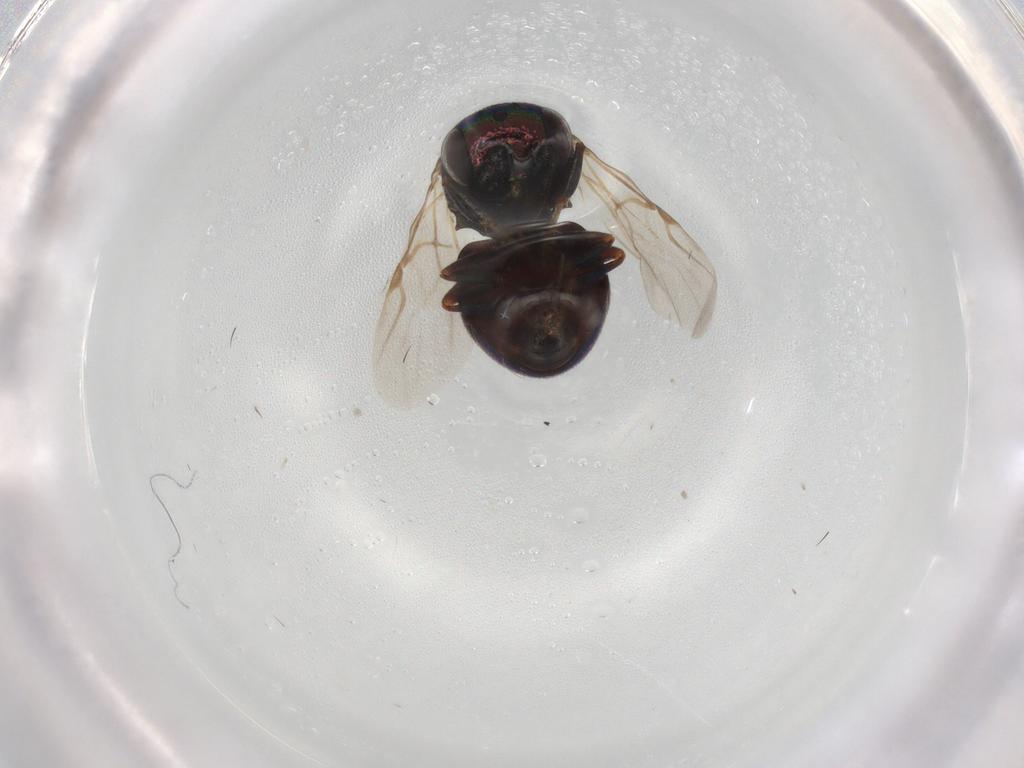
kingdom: Animalia
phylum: Arthropoda
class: Insecta
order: Hymenoptera
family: Chrysididae
